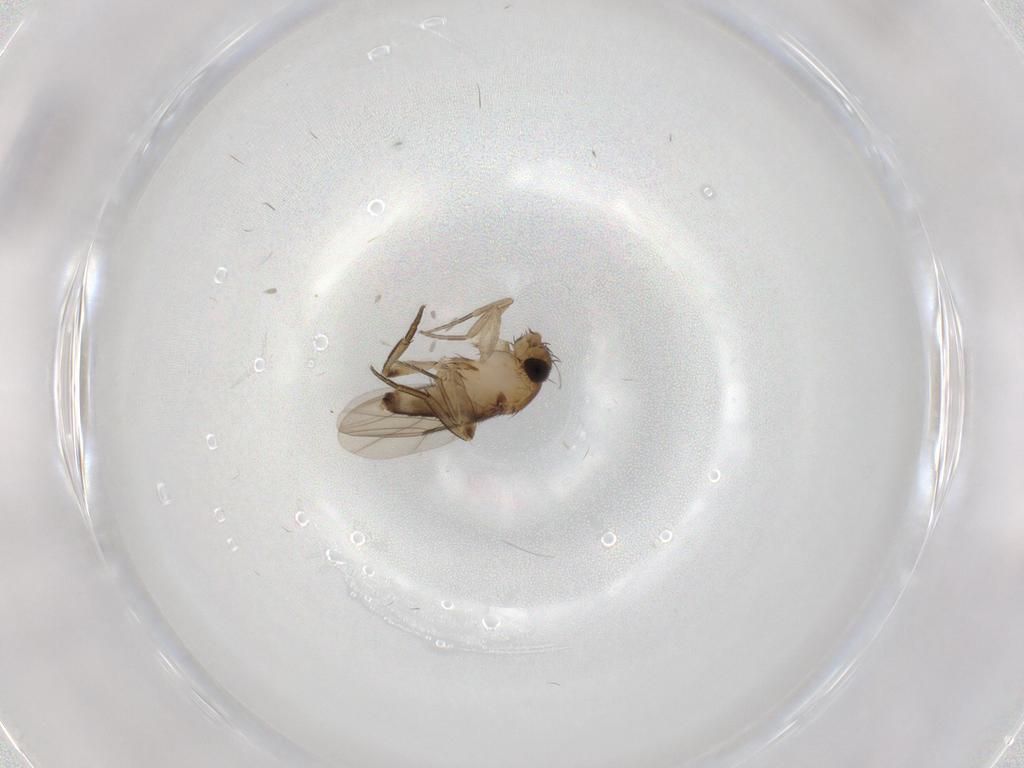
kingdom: Animalia
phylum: Arthropoda
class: Insecta
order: Diptera
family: Phoridae
